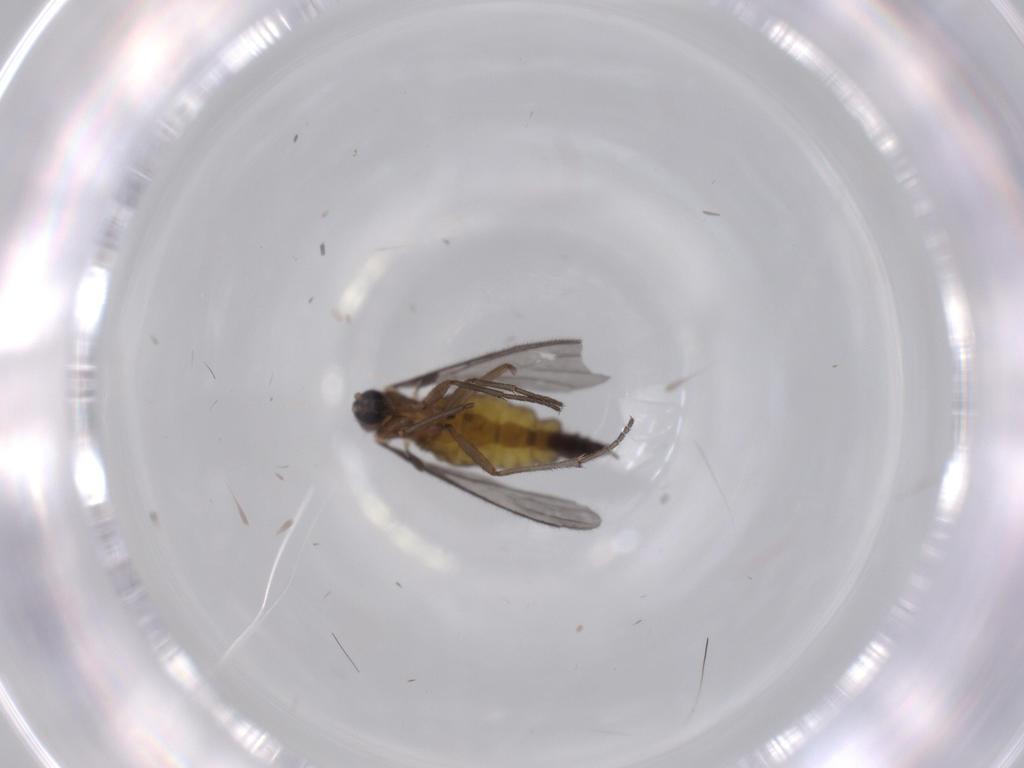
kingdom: Animalia
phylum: Arthropoda
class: Insecta
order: Diptera
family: Sciaridae
